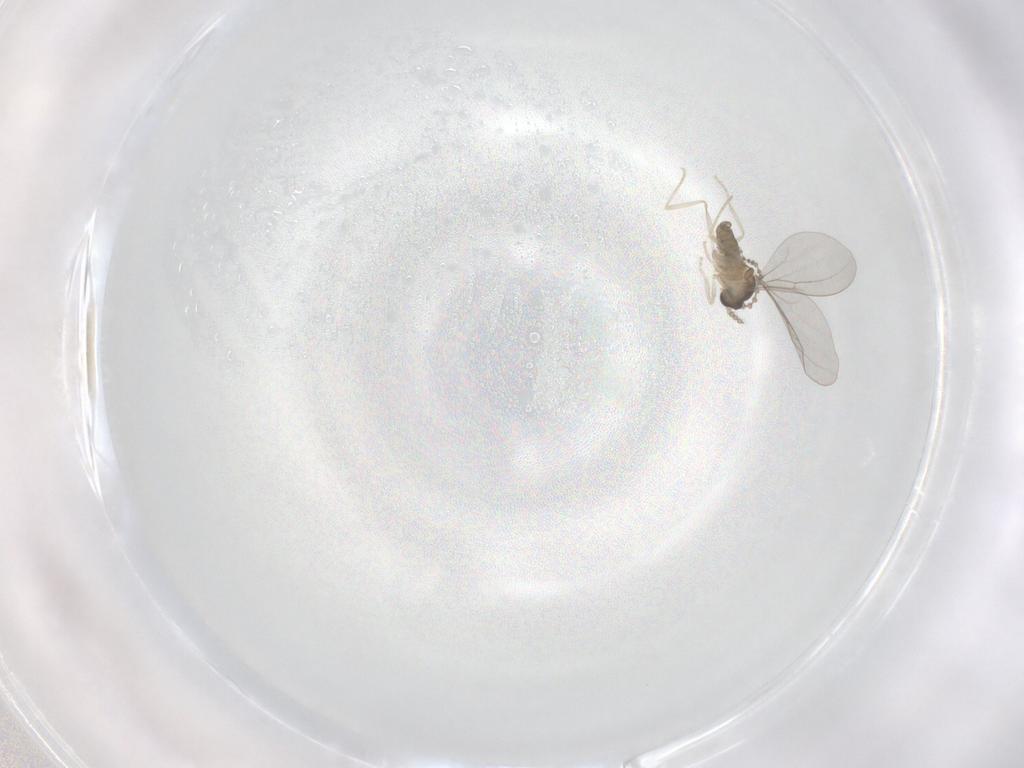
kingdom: Animalia
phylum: Arthropoda
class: Insecta
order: Diptera
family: Cecidomyiidae
